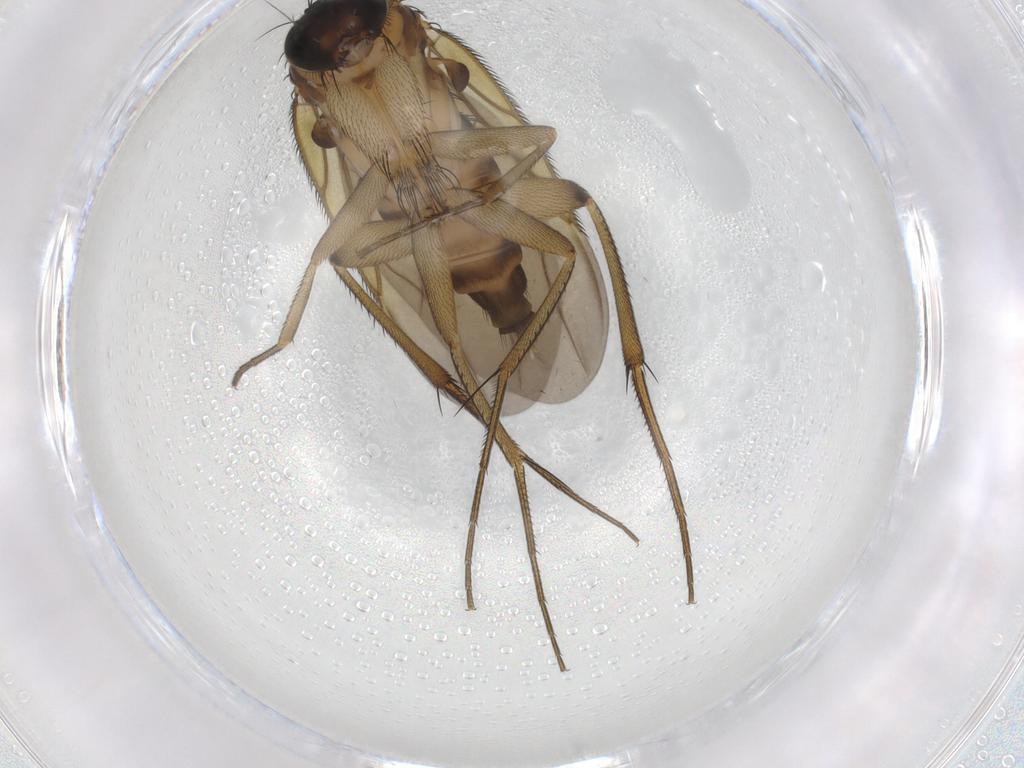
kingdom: Animalia
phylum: Arthropoda
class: Insecta
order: Diptera
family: Phoridae
